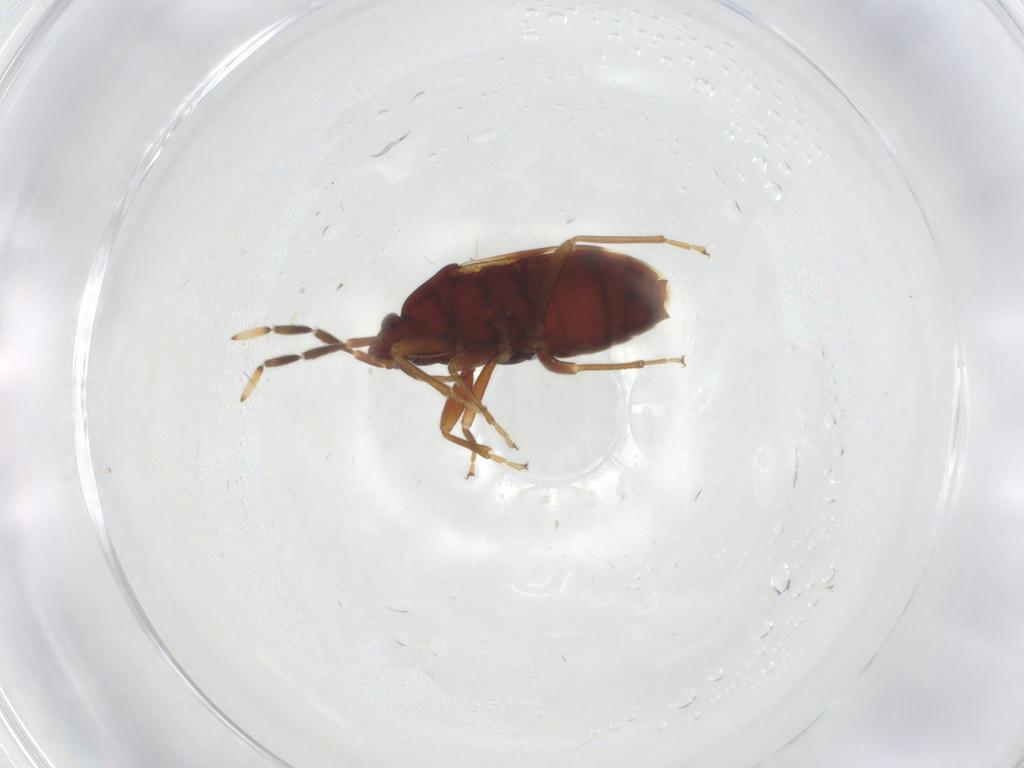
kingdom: Animalia
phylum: Arthropoda
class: Insecta
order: Hemiptera
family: Rhyparochromidae
